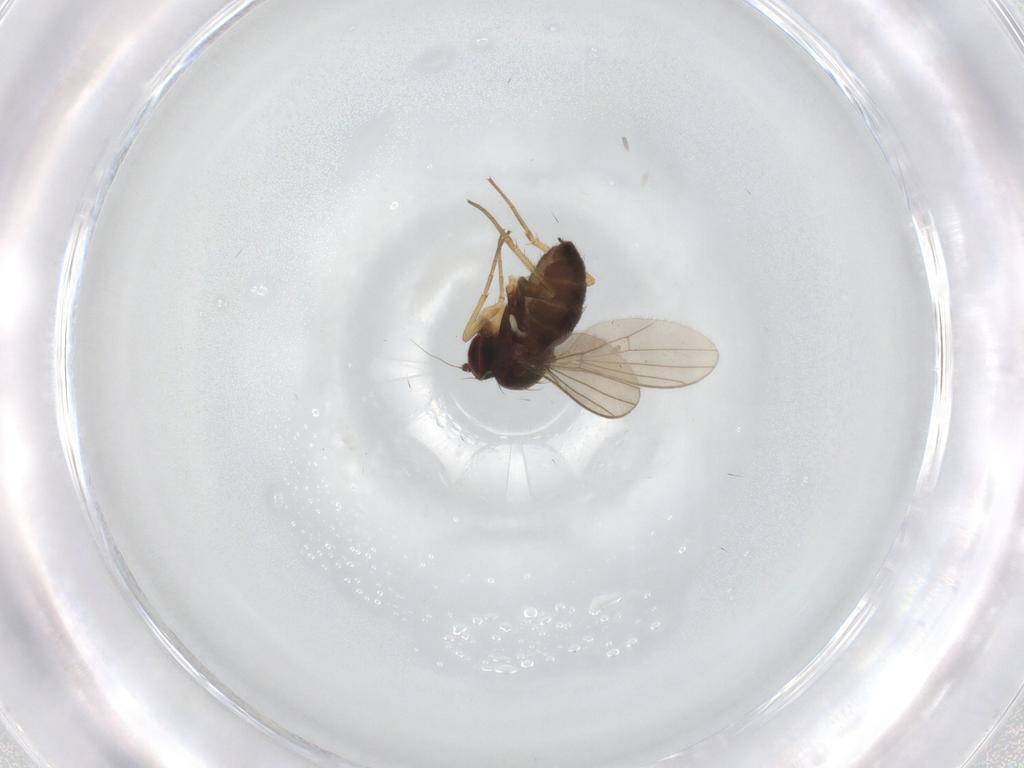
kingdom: Animalia
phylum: Arthropoda
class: Insecta
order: Diptera
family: Dolichopodidae
